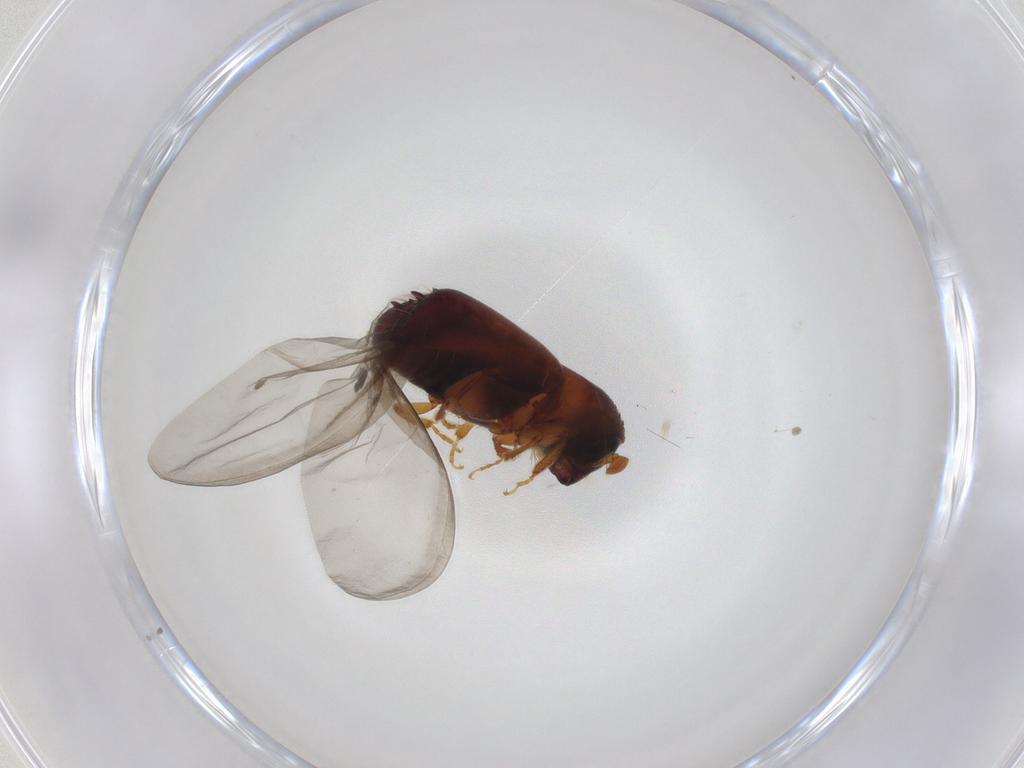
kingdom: Animalia
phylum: Arthropoda
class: Insecta
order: Coleoptera
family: Curculionidae
